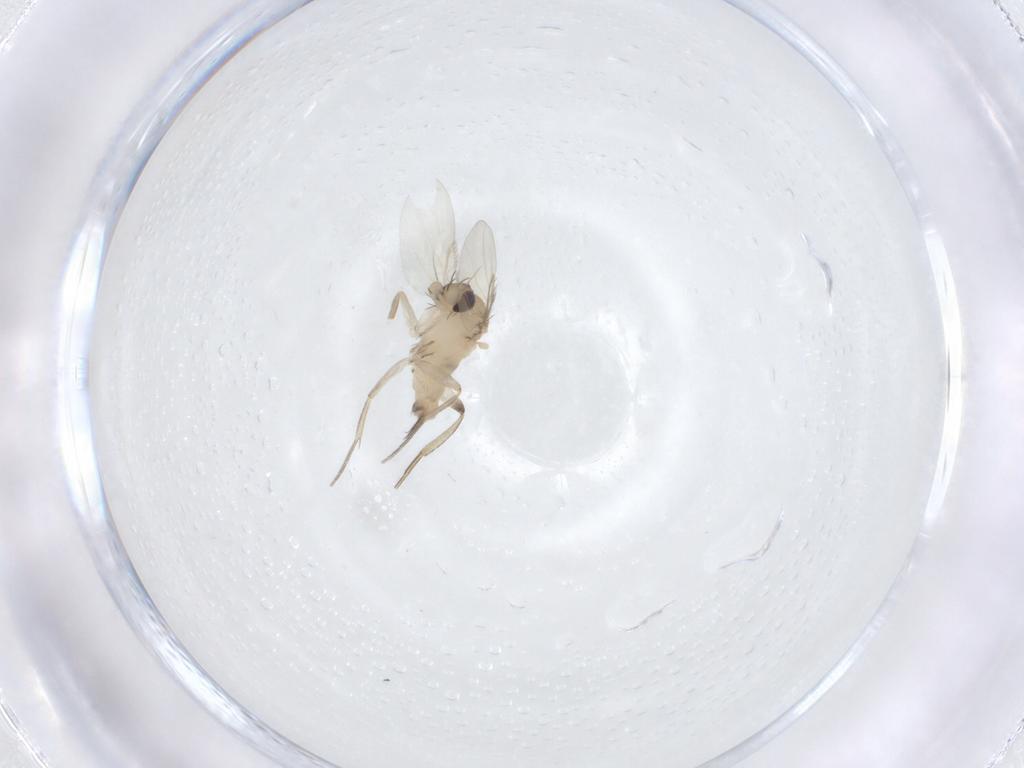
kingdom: Animalia
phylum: Arthropoda
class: Insecta
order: Diptera
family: Phoridae
